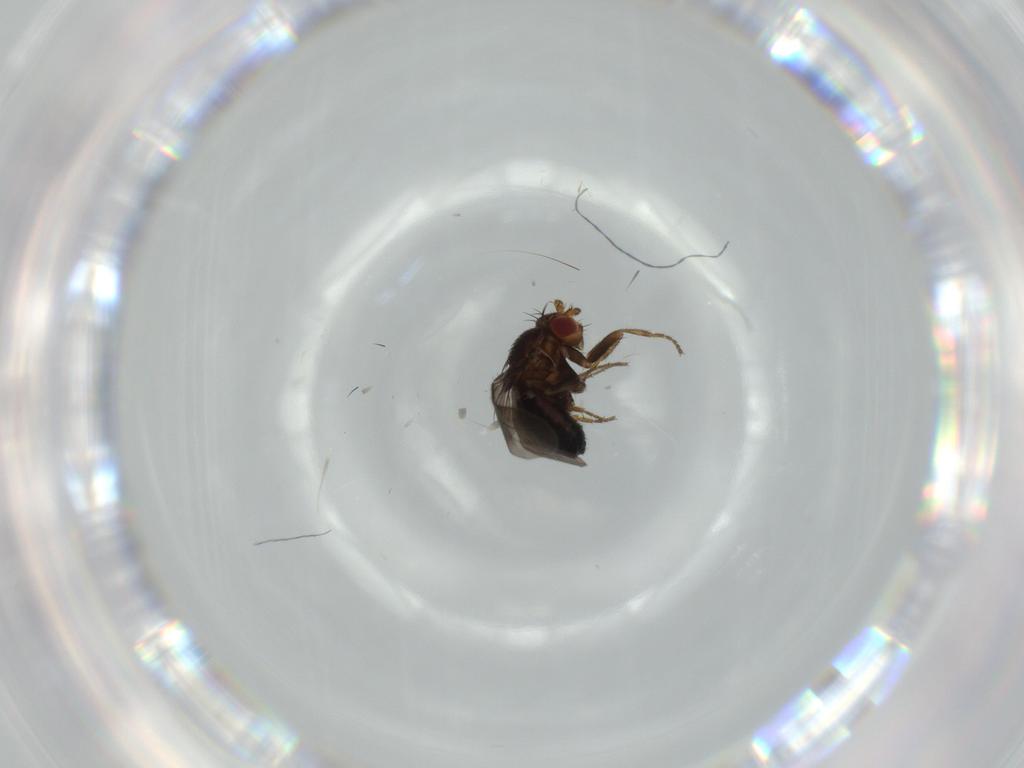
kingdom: Animalia
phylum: Arthropoda
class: Insecta
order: Diptera
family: Sphaeroceridae
